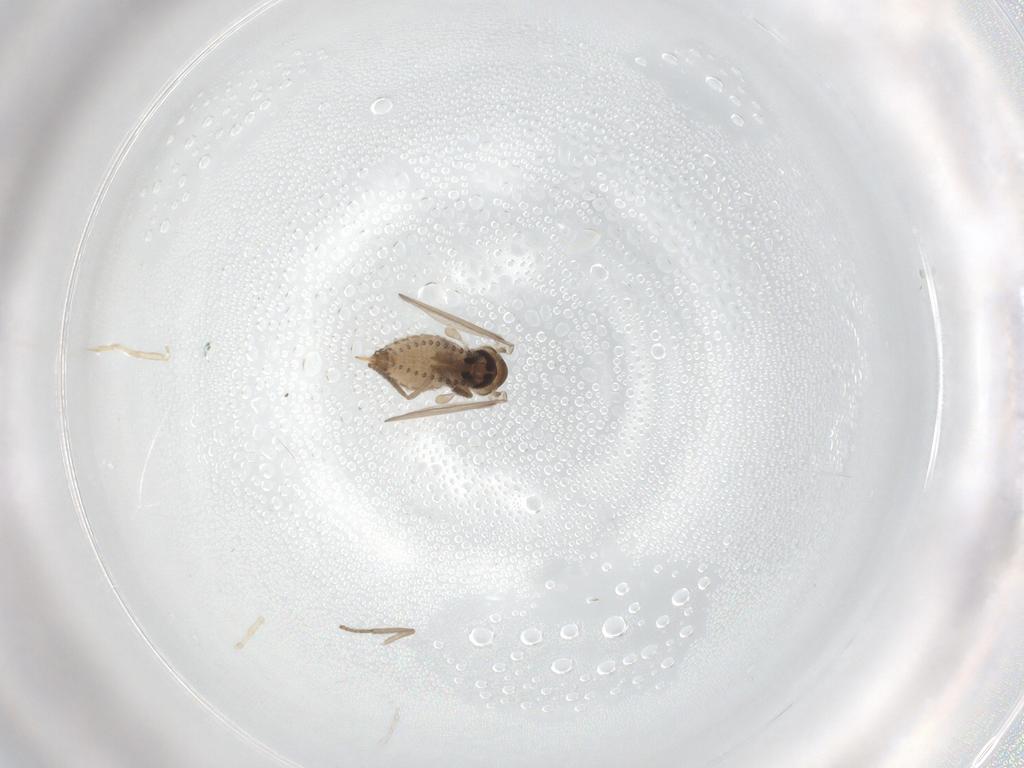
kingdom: Animalia
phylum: Arthropoda
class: Insecta
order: Diptera
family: Psychodidae
